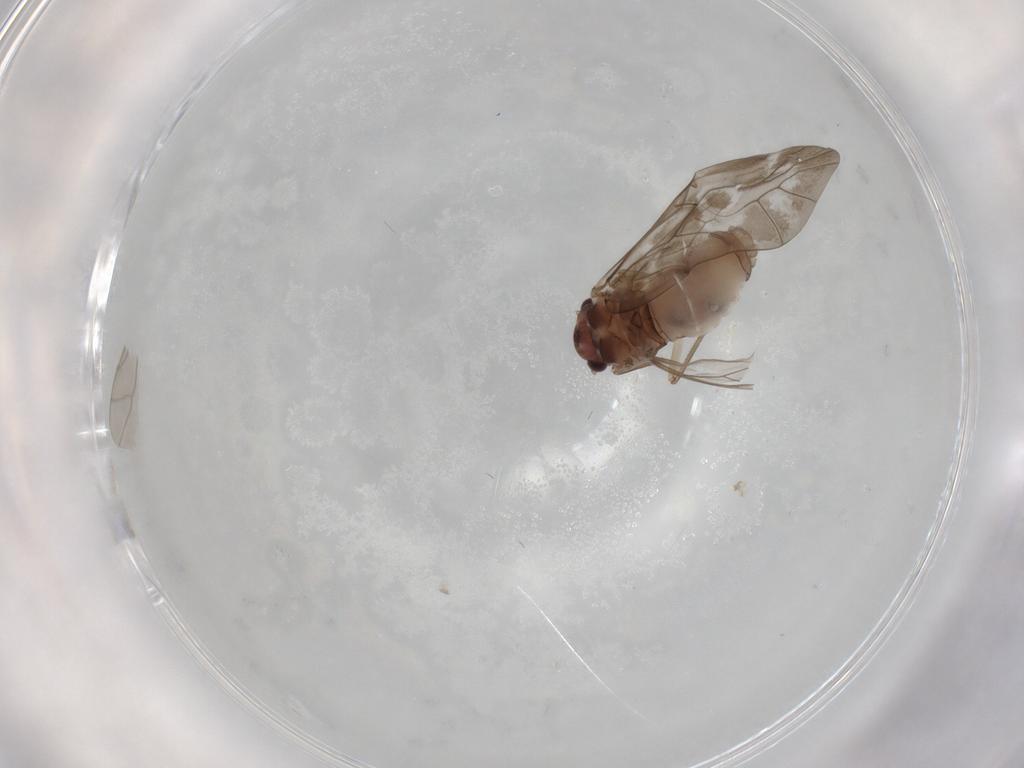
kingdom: Animalia
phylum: Arthropoda
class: Insecta
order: Psocodea
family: Peripsocidae
